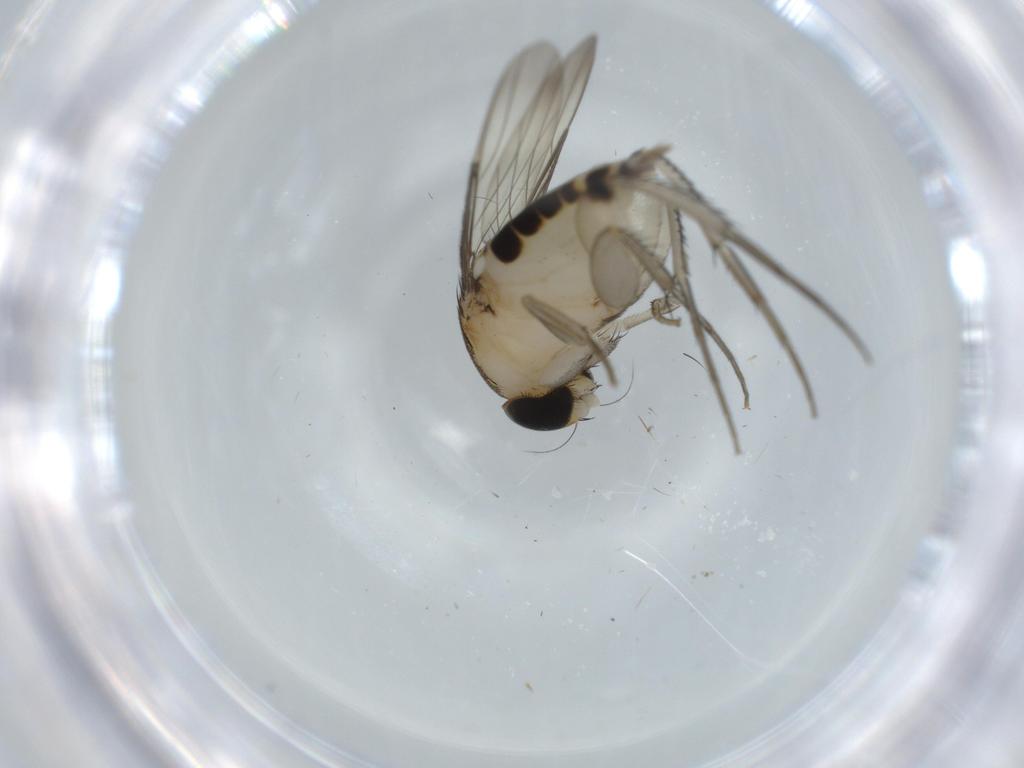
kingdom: Animalia
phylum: Arthropoda
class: Insecta
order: Diptera
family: Phoridae
